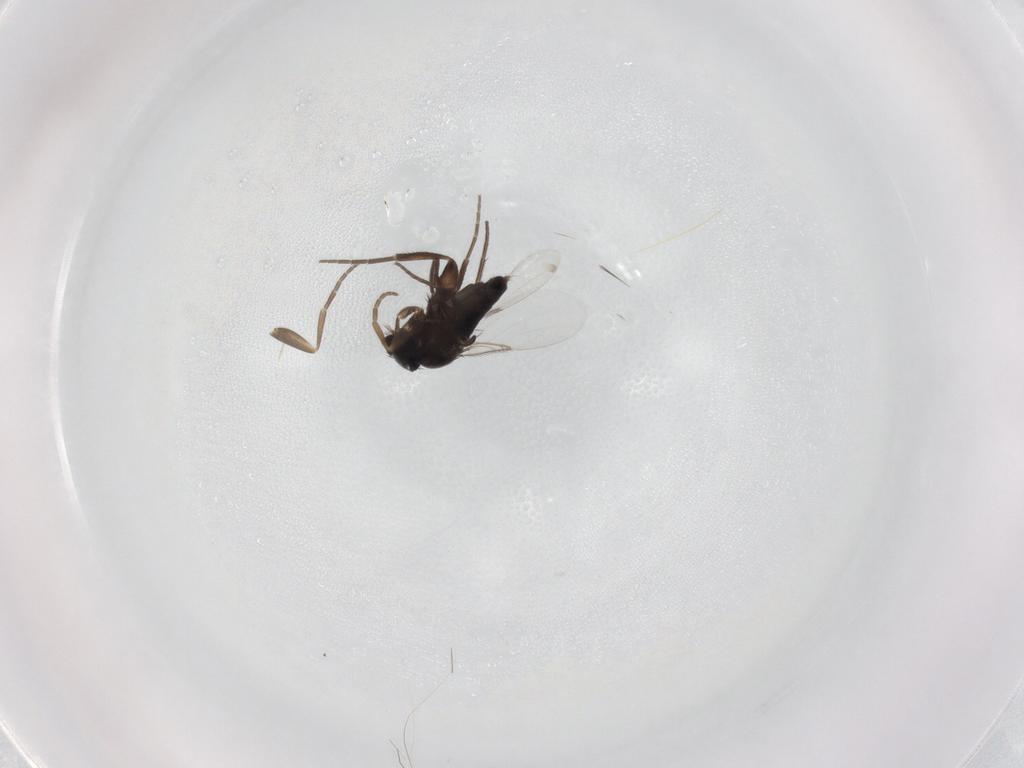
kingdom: Animalia
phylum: Arthropoda
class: Insecta
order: Diptera
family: Phoridae
